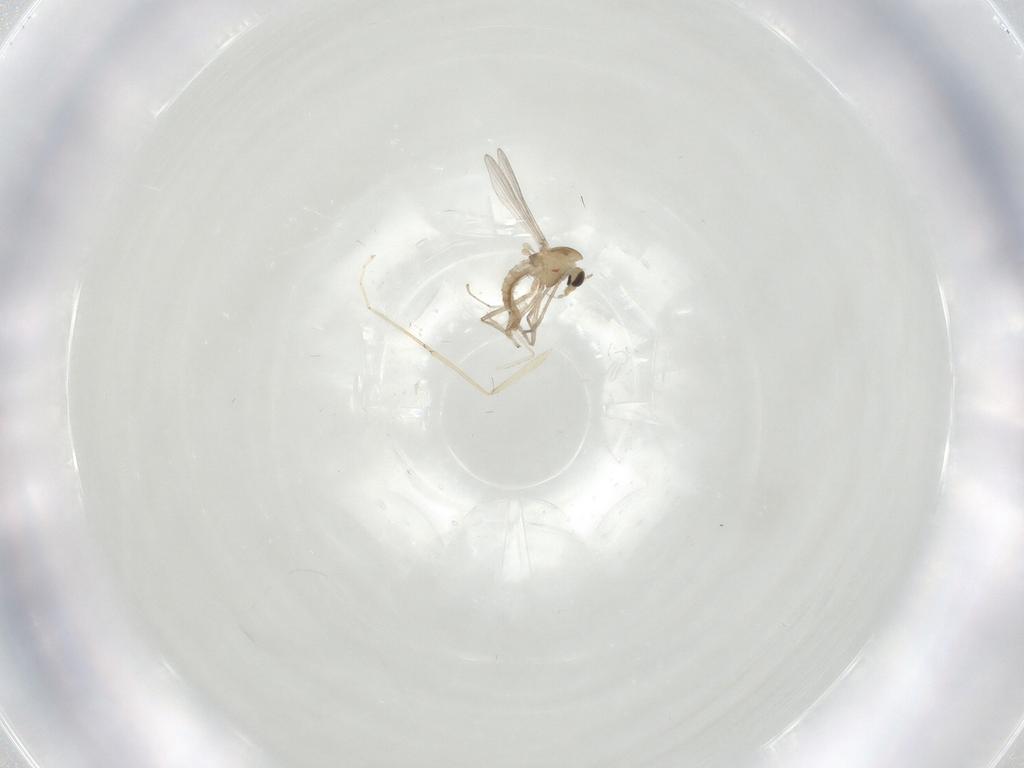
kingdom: Animalia
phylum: Arthropoda
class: Insecta
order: Diptera
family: Chironomidae
